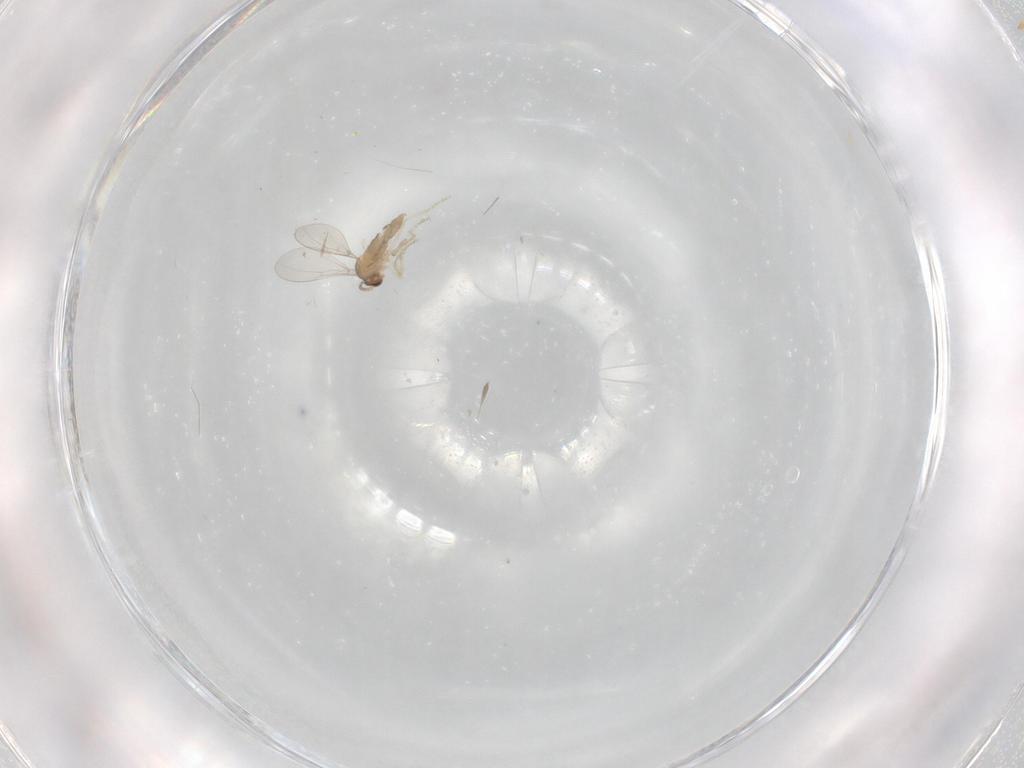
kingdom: Animalia
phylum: Arthropoda
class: Insecta
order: Diptera
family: Cecidomyiidae
